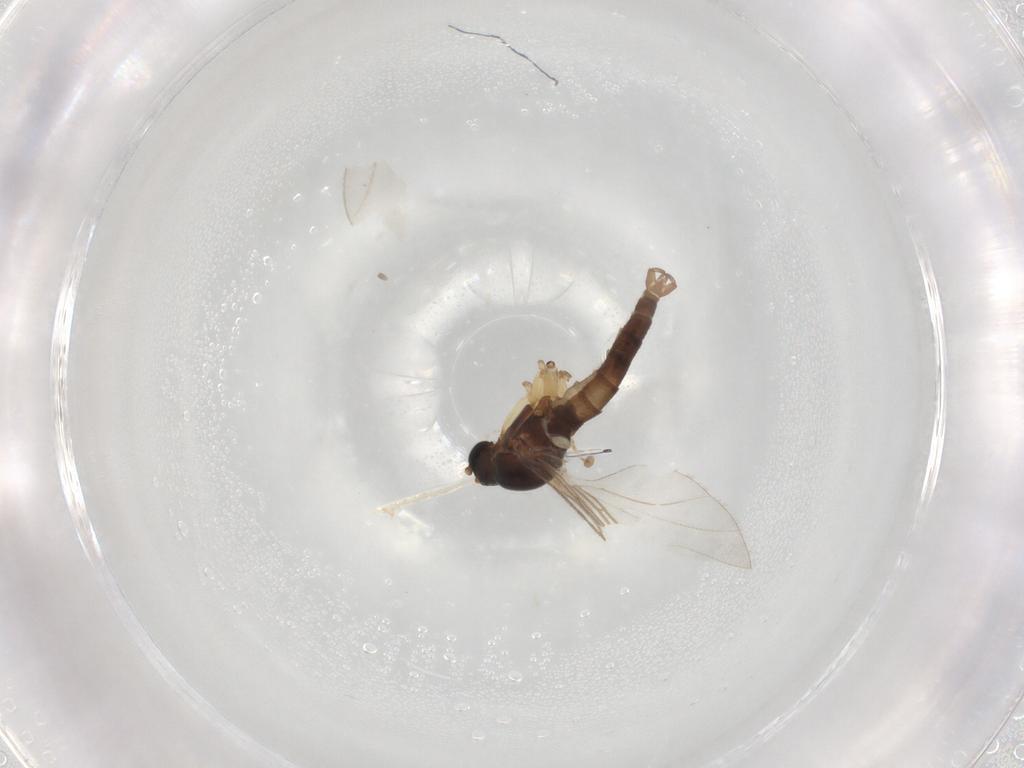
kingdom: Animalia
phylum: Arthropoda
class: Insecta
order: Diptera
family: Sciaridae
